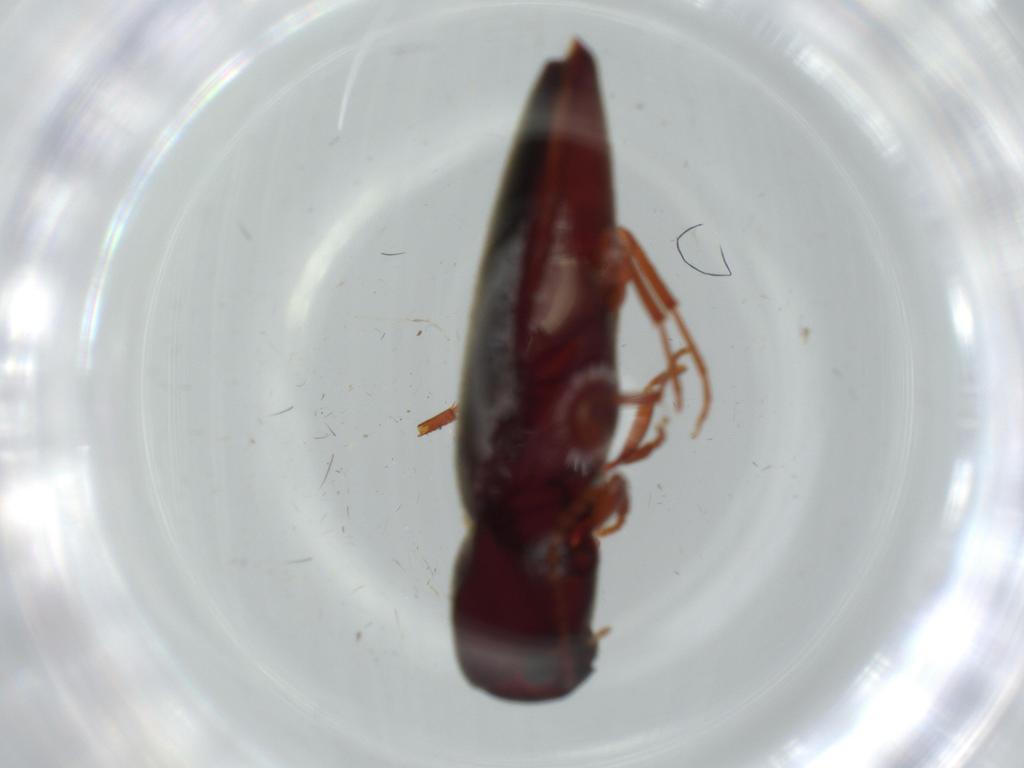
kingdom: Animalia
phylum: Arthropoda
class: Insecta
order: Coleoptera
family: Eucnemidae
